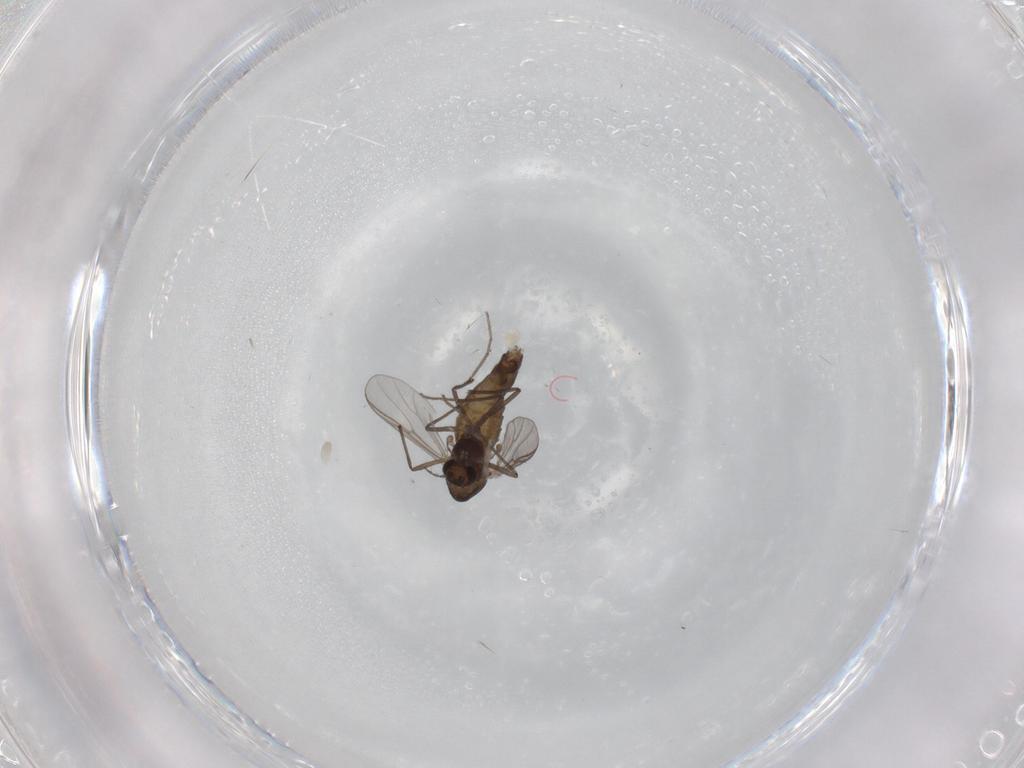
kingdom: Animalia
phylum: Arthropoda
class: Insecta
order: Diptera
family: Chironomidae
